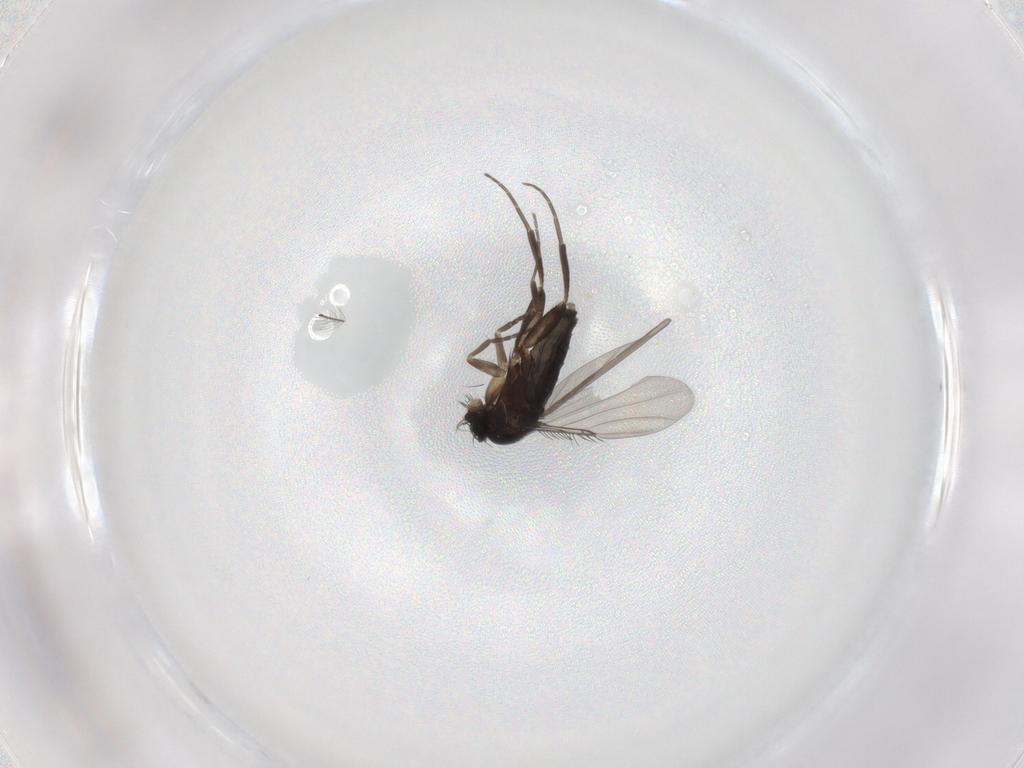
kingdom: Animalia
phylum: Arthropoda
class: Insecta
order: Diptera
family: Phoridae
